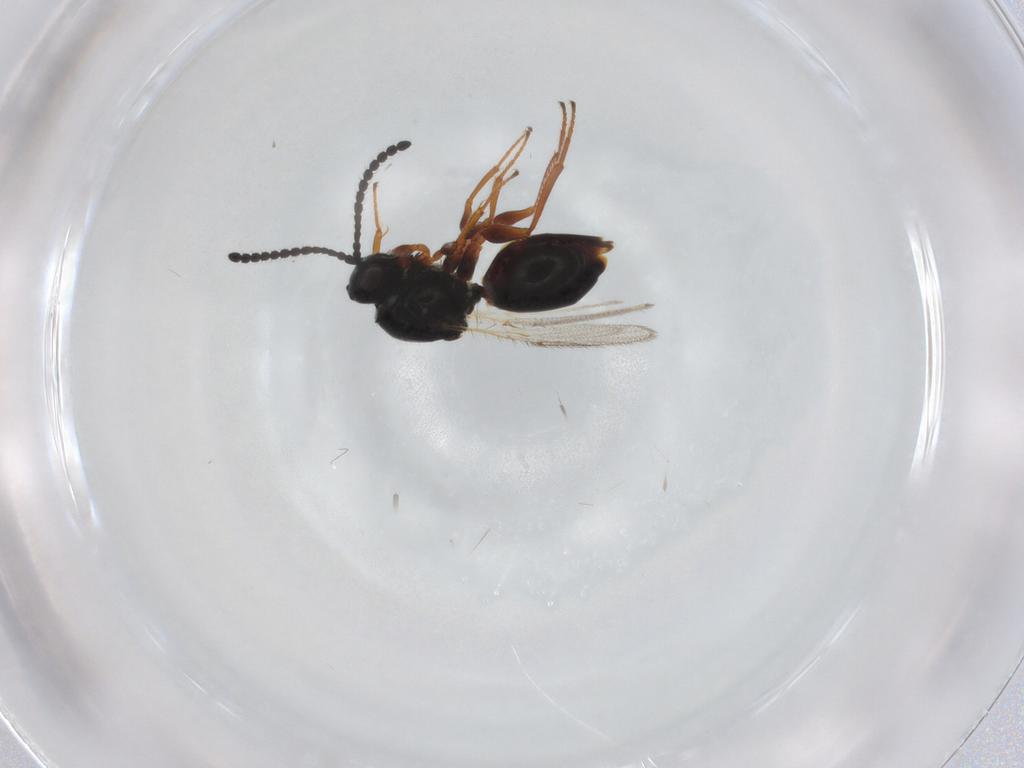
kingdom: Animalia
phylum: Arthropoda
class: Insecta
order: Hymenoptera
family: Figitidae
